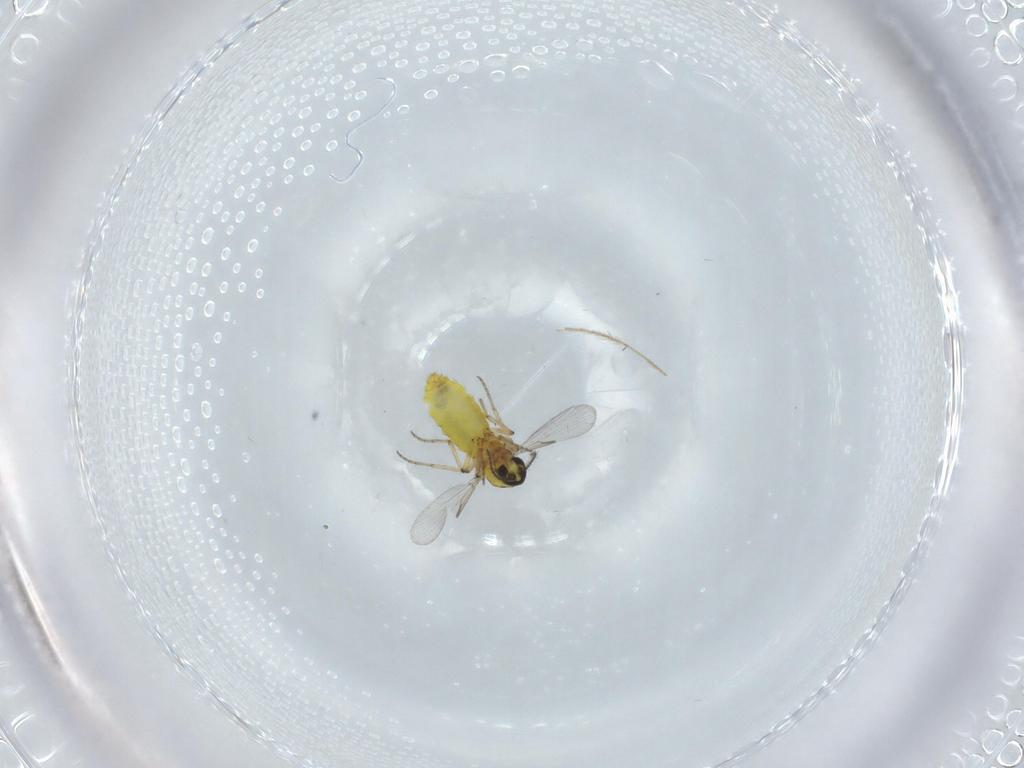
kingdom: Animalia
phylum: Arthropoda
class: Insecta
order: Diptera
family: Ceratopogonidae
